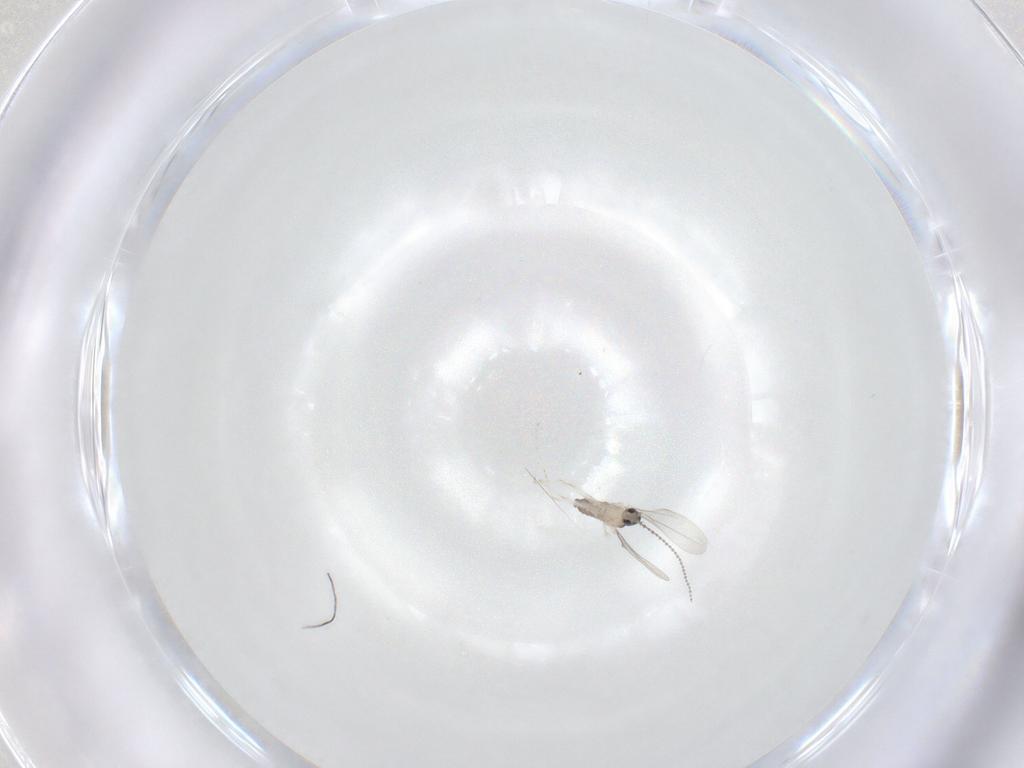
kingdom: Animalia
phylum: Arthropoda
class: Insecta
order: Diptera
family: Cecidomyiidae
